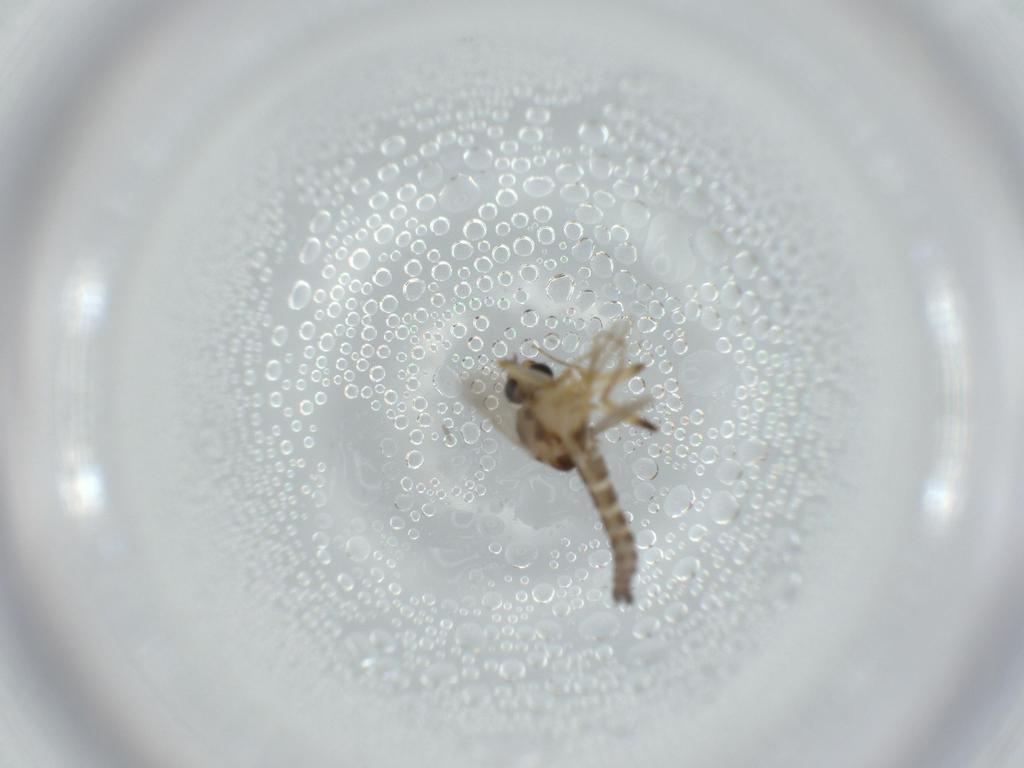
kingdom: Animalia
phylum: Arthropoda
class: Insecta
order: Diptera
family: Ceratopogonidae
